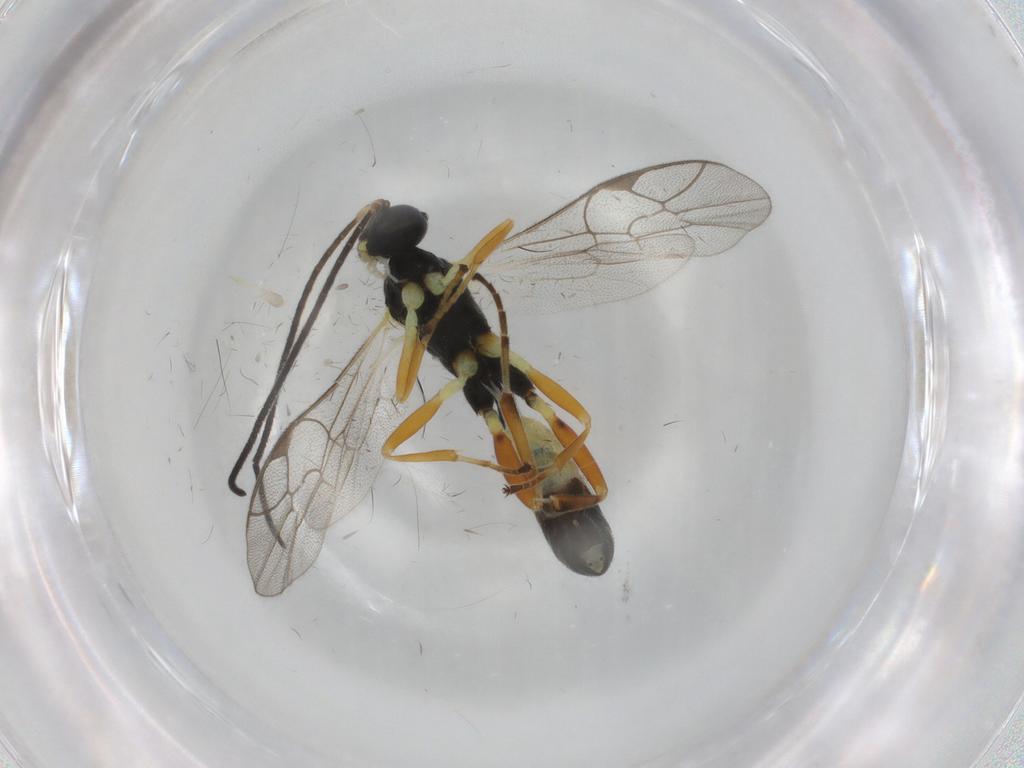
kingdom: Animalia
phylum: Arthropoda
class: Insecta
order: Hymenoptera
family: Ichneumonidae
